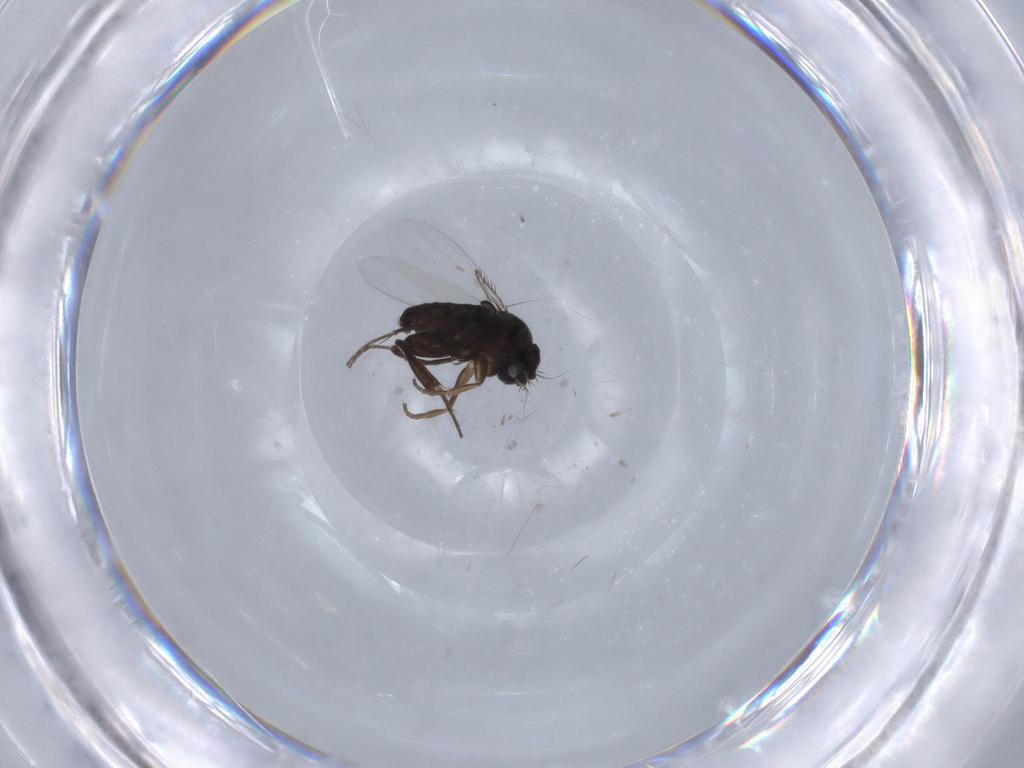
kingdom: Animalia
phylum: Arthropoda
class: Insecta
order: Diptera
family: Phoridae
